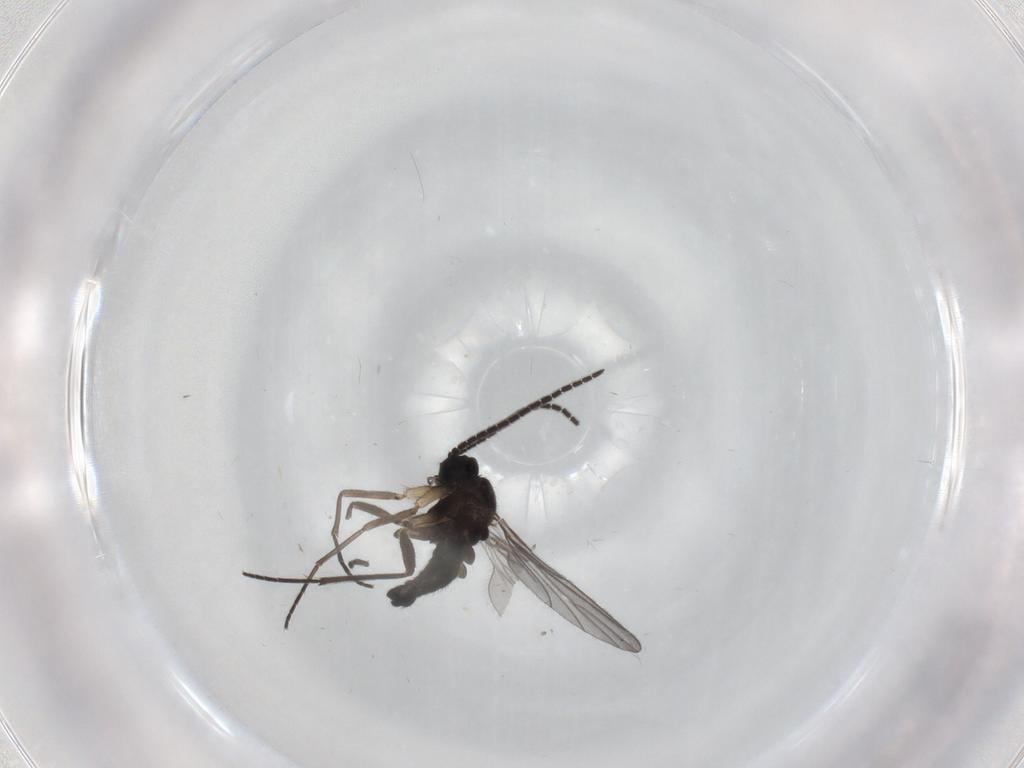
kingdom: Animalia
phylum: Arthropoda
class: Insecta
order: Diptera
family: Sciaridae
